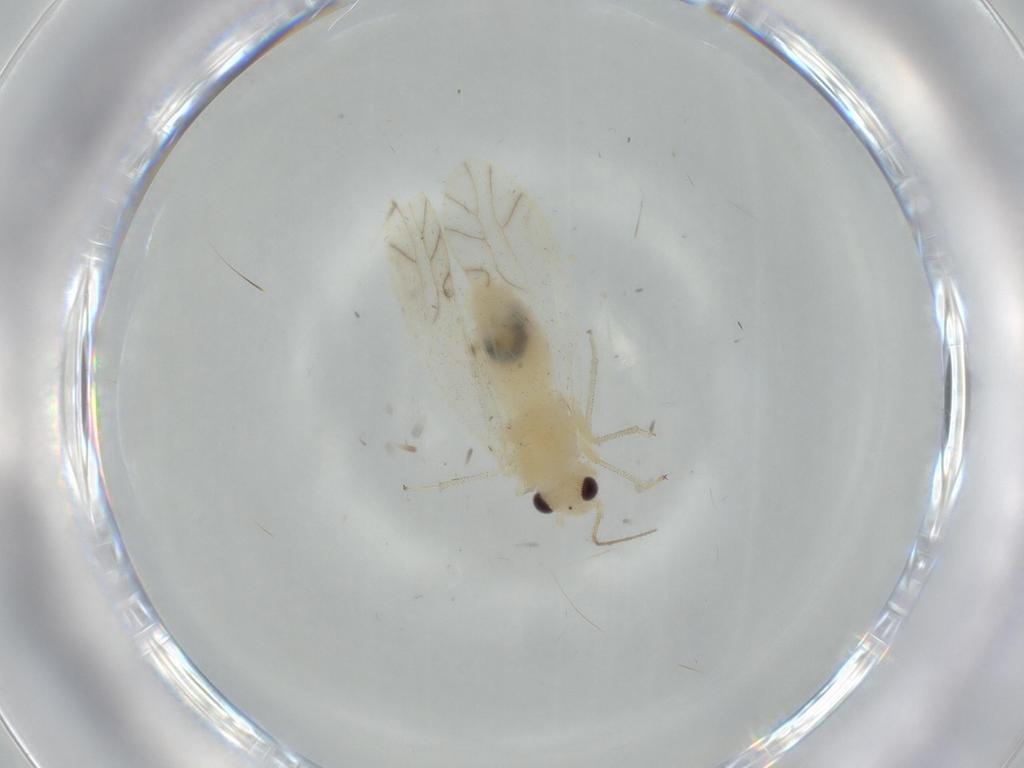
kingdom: Animalia
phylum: Arthropoda
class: Insecta
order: Psocodea
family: Caeciliusidae
